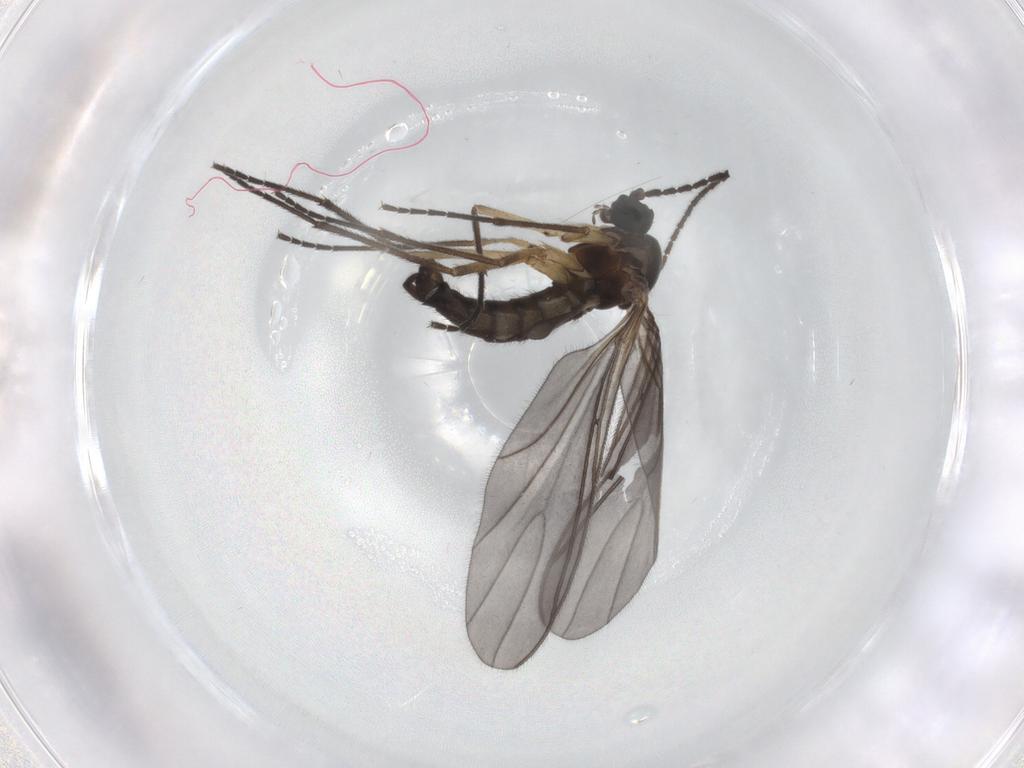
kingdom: Animalia
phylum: Arthropoda
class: Insecta
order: Diptera
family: Sciaridae
